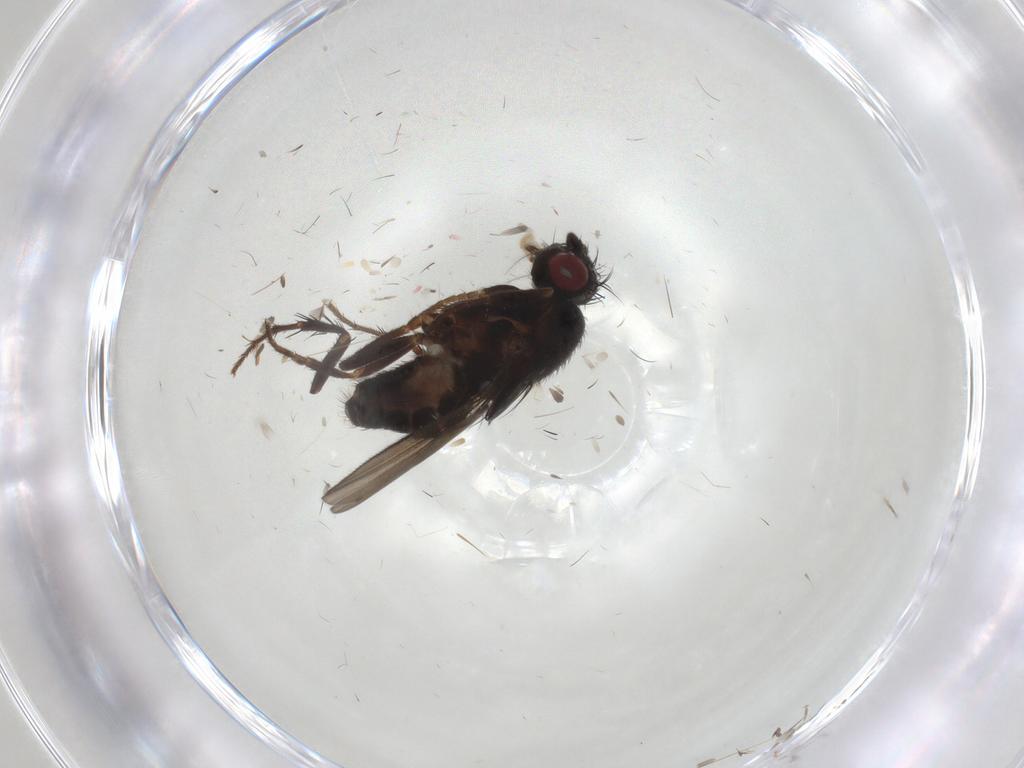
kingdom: Animalia
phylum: Arthropoda
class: Insecta
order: Diptera
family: Sphaeroceridae
